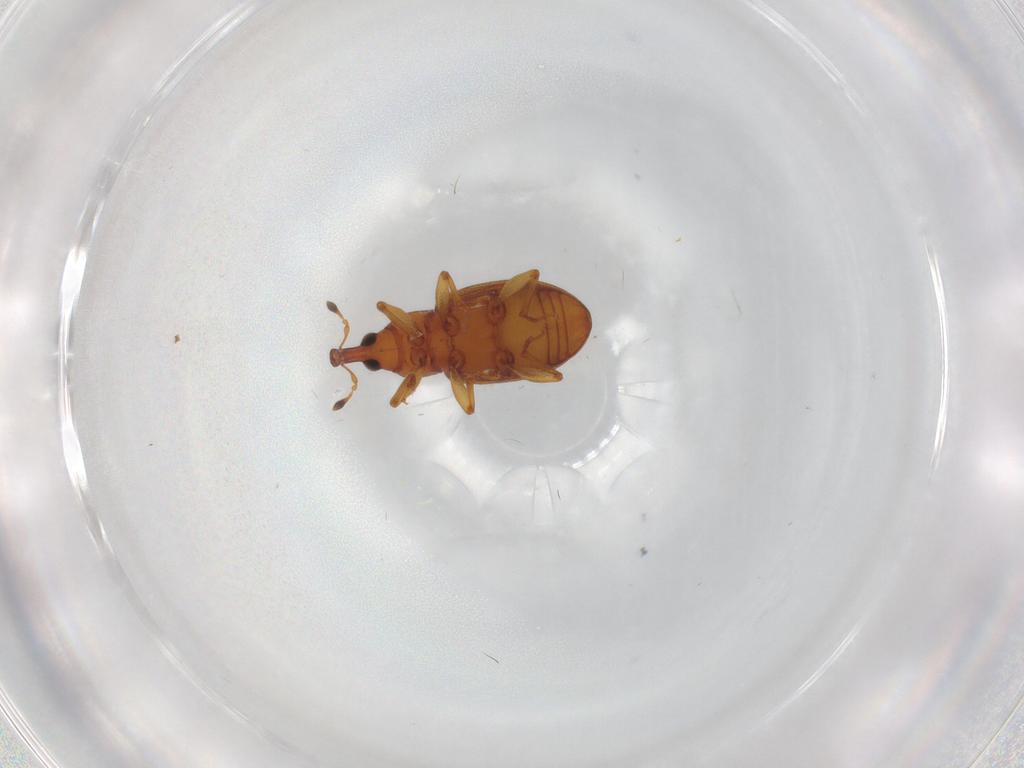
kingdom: Animalia
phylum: Arthropoda
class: Insecta
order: Coleoptera
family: Curculionidae
